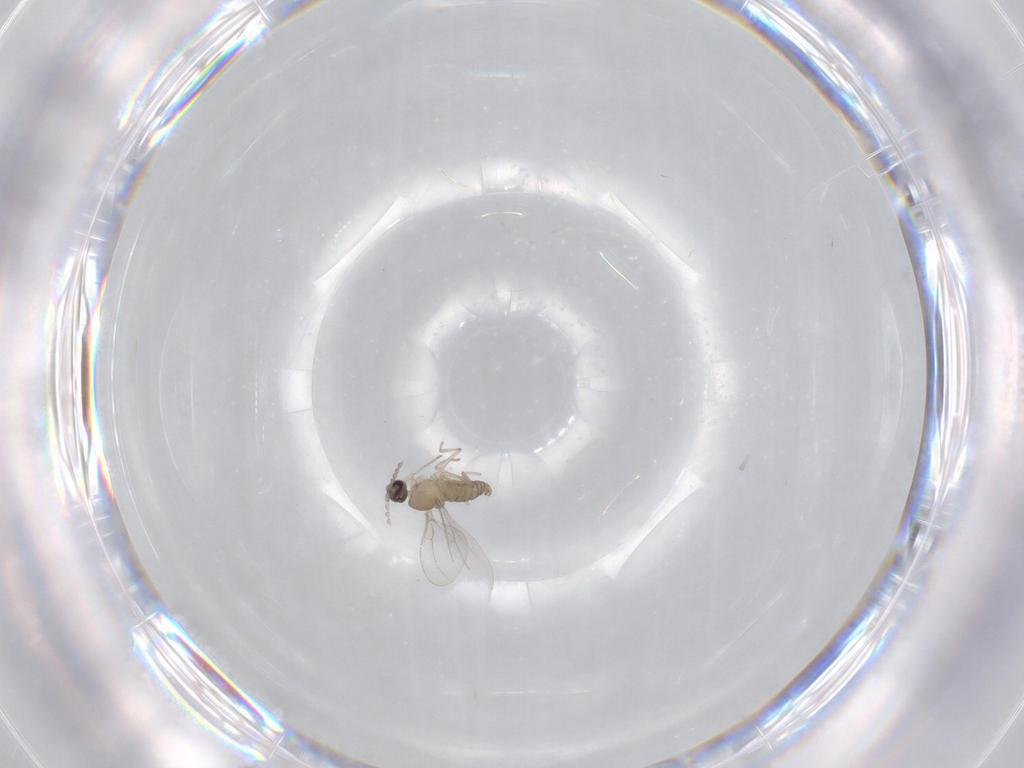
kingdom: Animalia
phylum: Arthropoda
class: Insecta
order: Diptera
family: Cecidomyiidae
